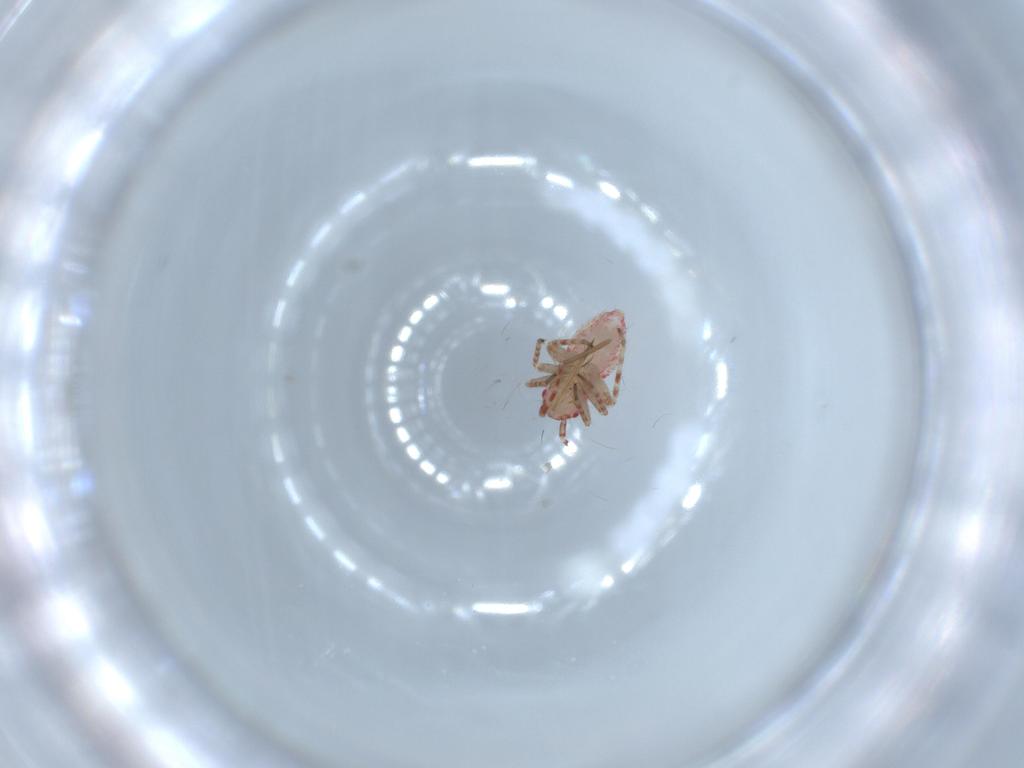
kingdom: Animalia
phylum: Arthropoda
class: Insecta
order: Hemiptera
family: Miridae
